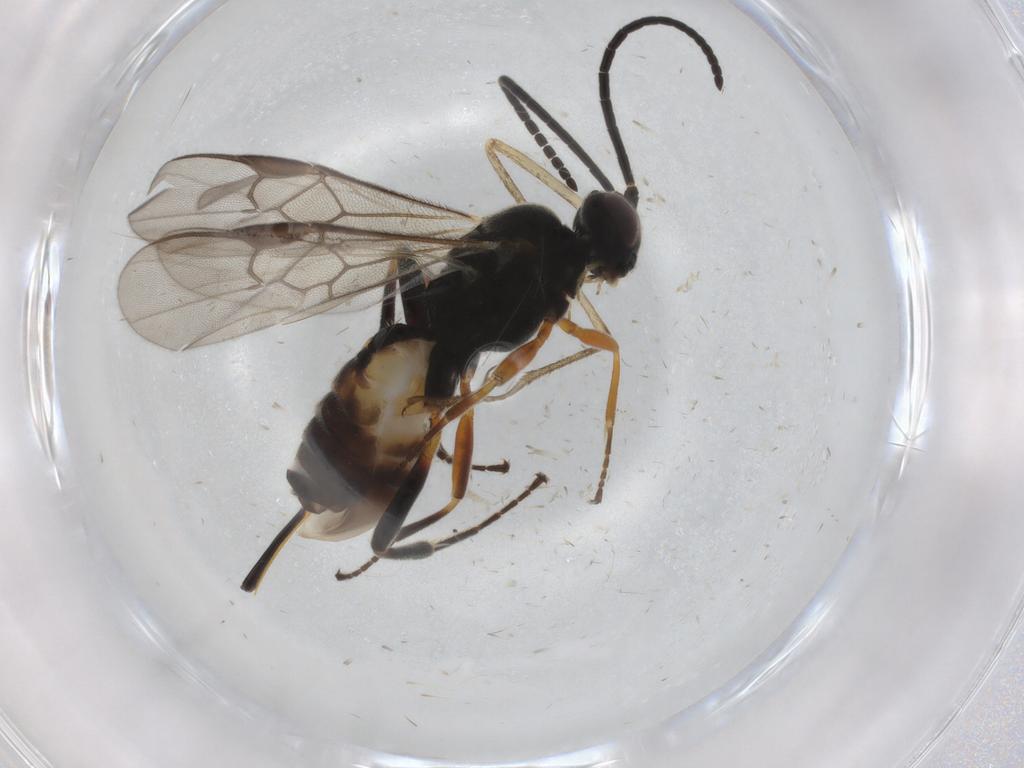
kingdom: Animalia
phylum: Arthropoda
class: Insecta
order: Hymenoptera
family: Braconidae
